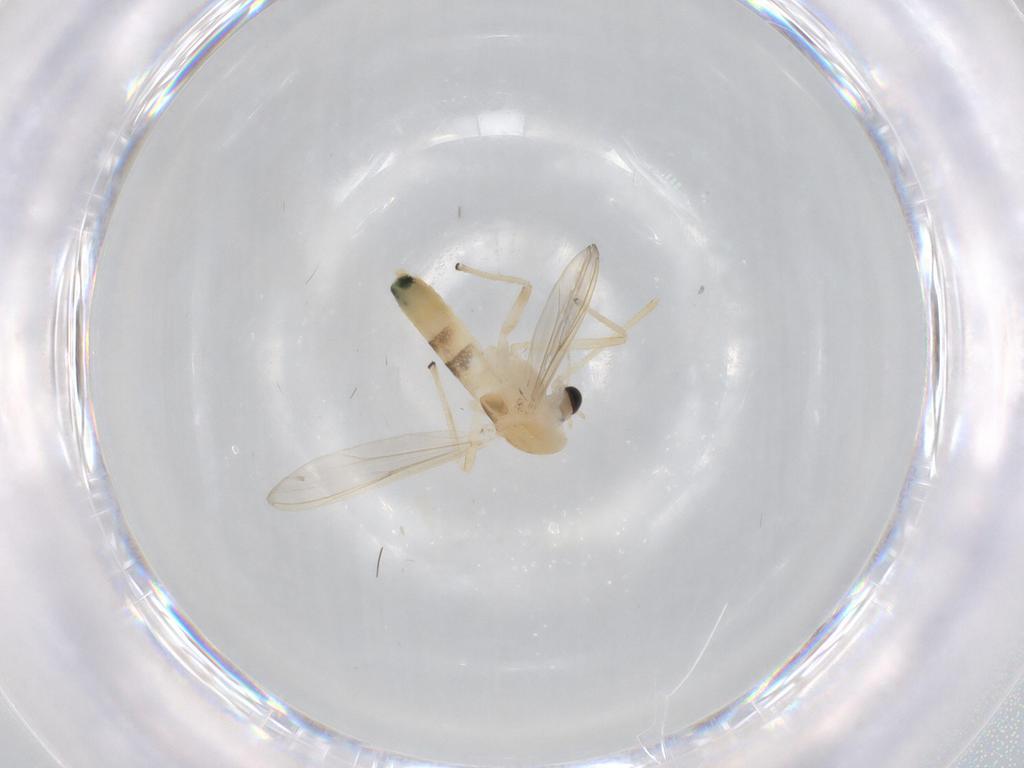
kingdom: Animalia
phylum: Arthropoda
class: Insecta
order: Diptera
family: Chironomidae
